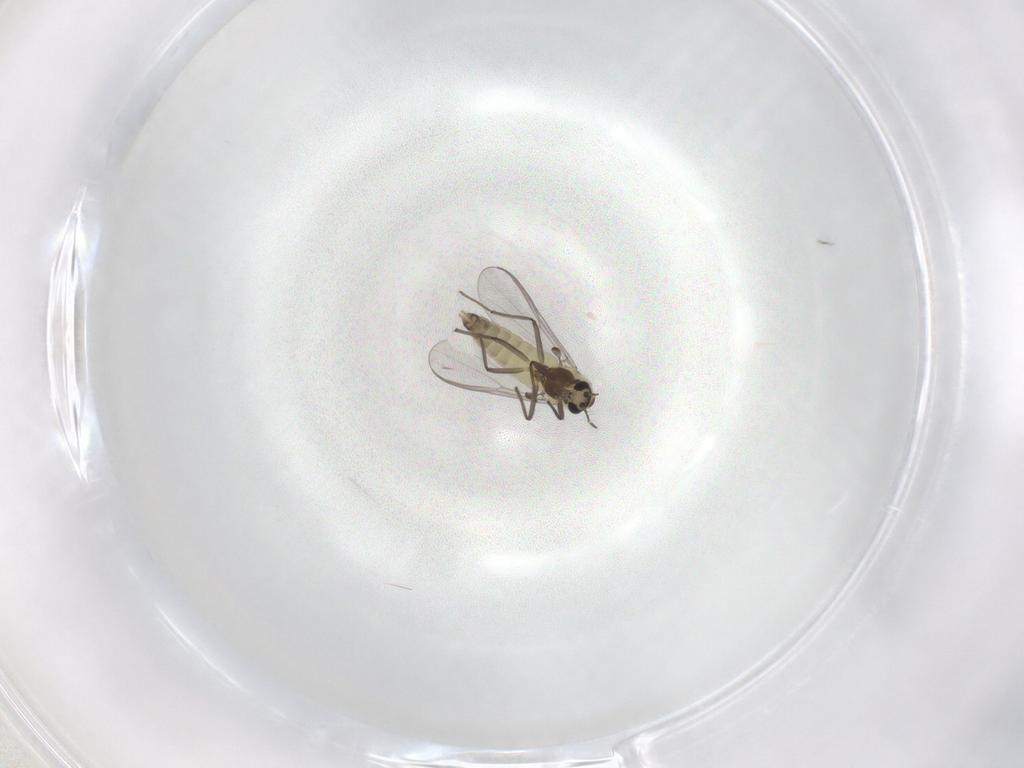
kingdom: Animalia
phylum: Arthropoda
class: Insecta
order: Diptera
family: Chironomidae
